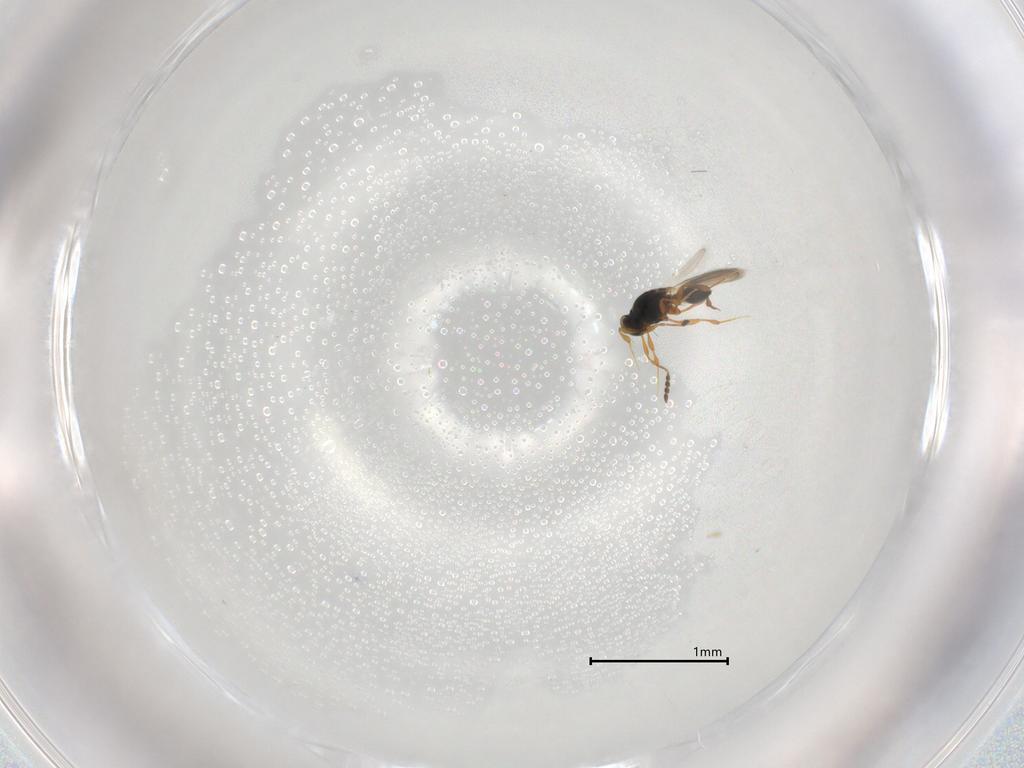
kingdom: Animalia
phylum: Arthropoda
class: Insecta
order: Hymenoptera
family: Platygastridae
